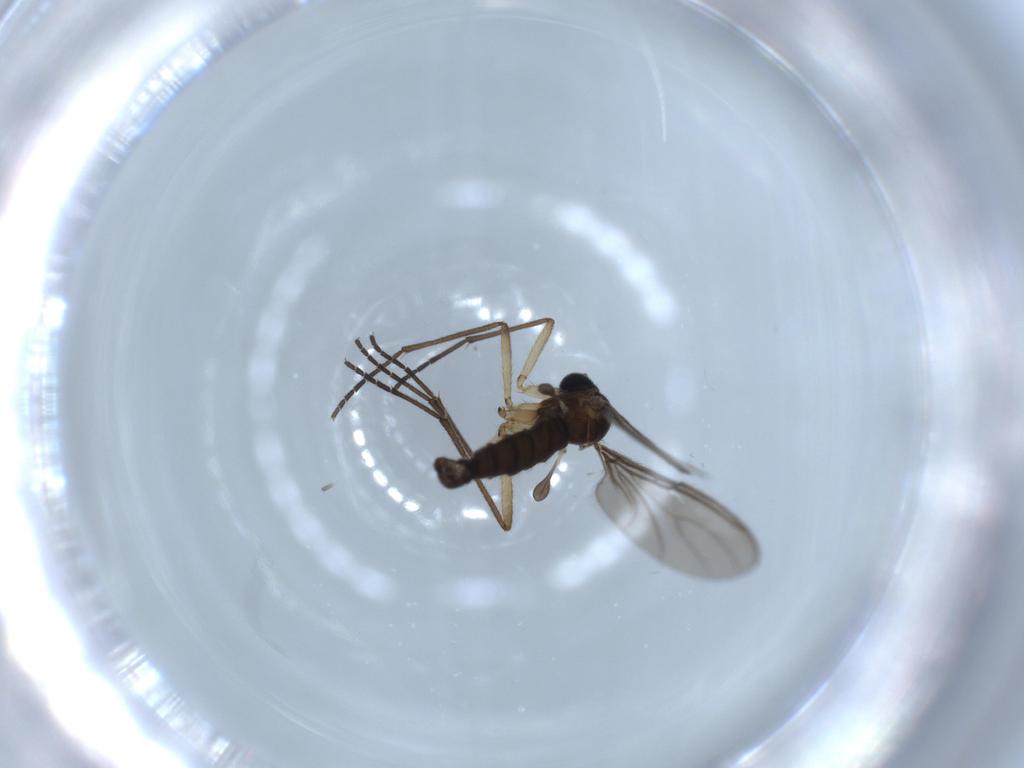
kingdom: Animalia
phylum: Arthropoda
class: Insecta
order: Diptera
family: Sciaridae
